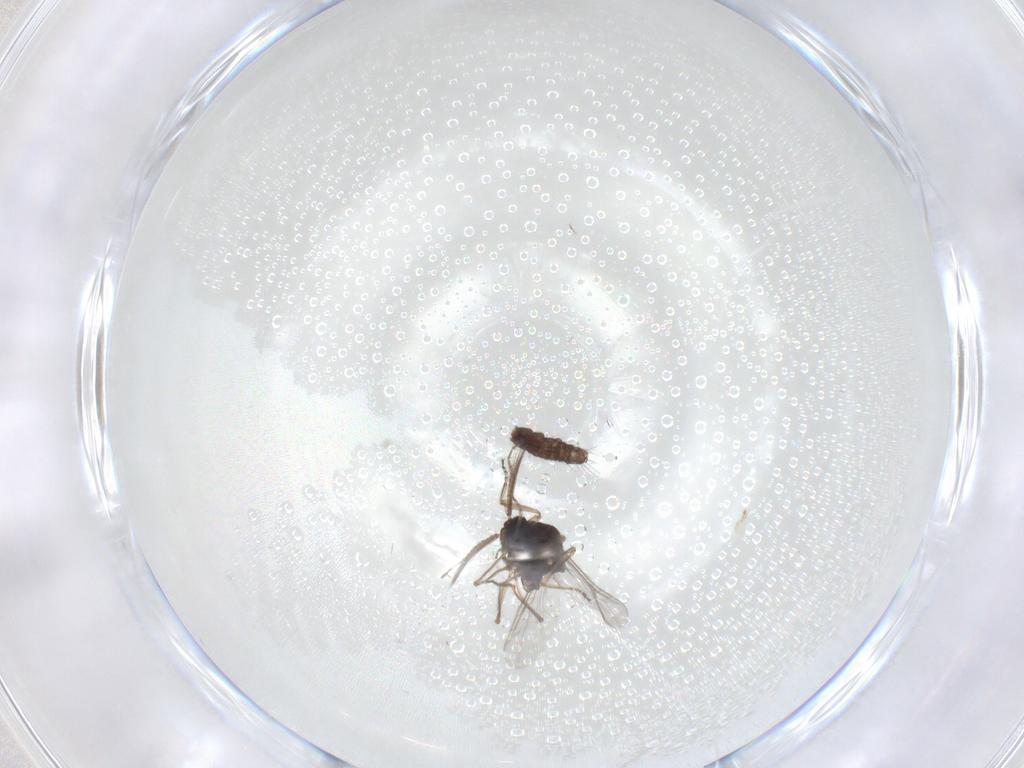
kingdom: Animalia
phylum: Arthropoda
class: Insecta
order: Diptera
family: Ceratopogonidae
